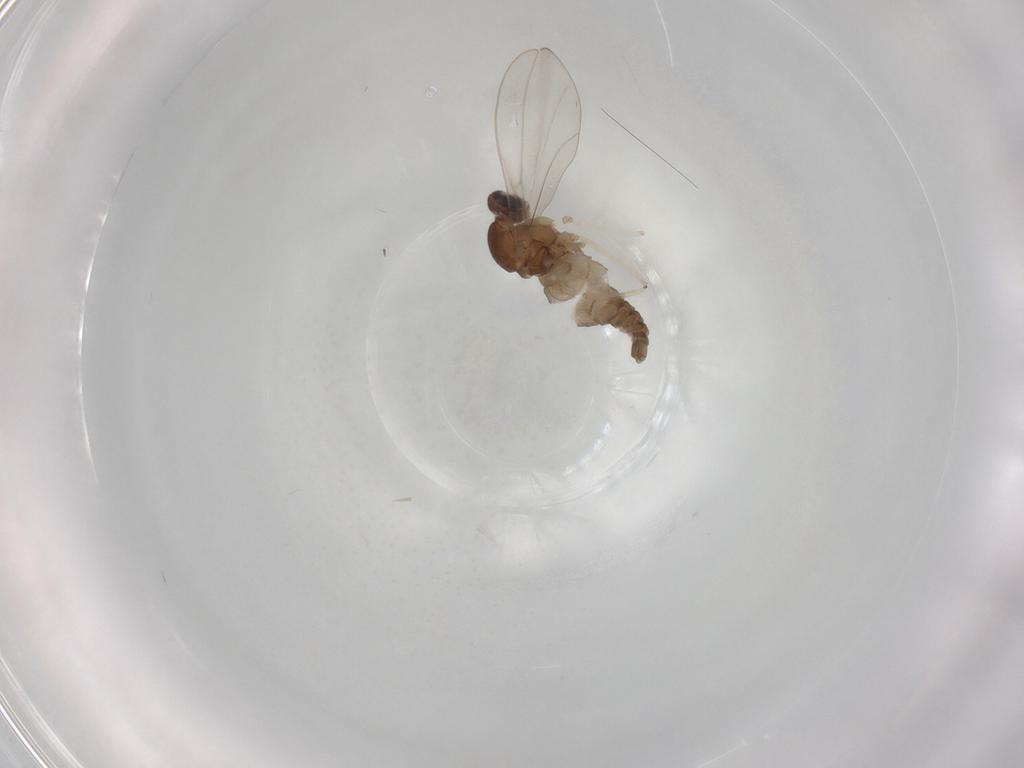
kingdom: Animalia
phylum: Arthropoda
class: Insecta
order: Diptera
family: Cecidomyiidae
